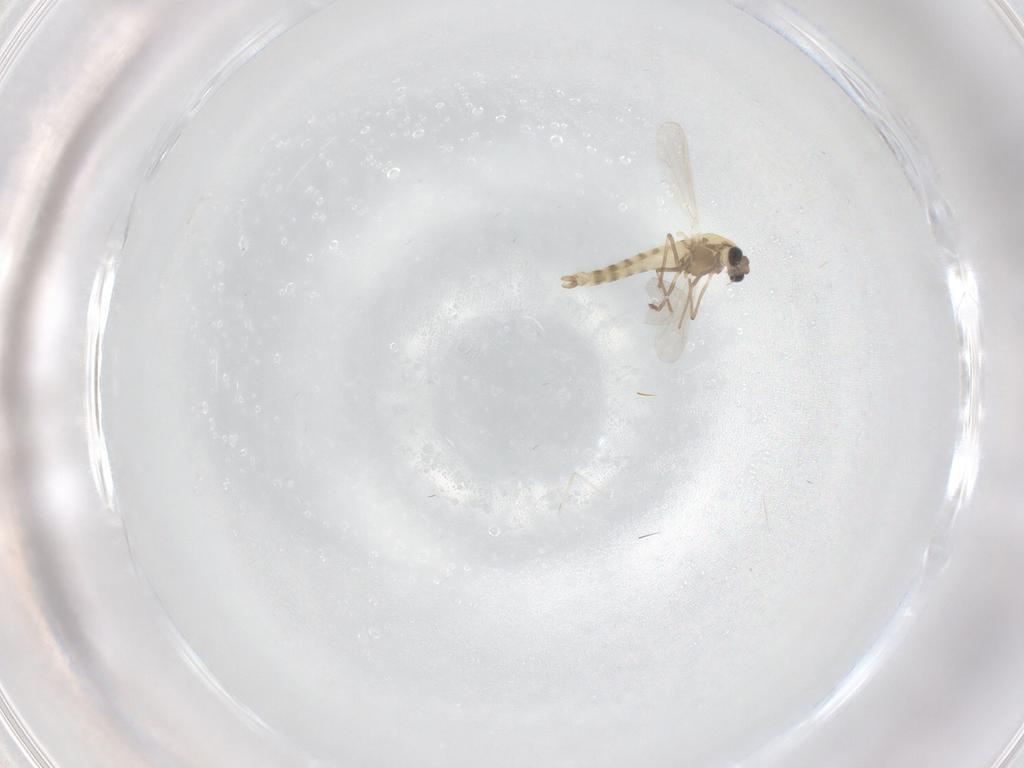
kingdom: Animalia
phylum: Arthropoda
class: Insecta
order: Diptera
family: Chironomidae
